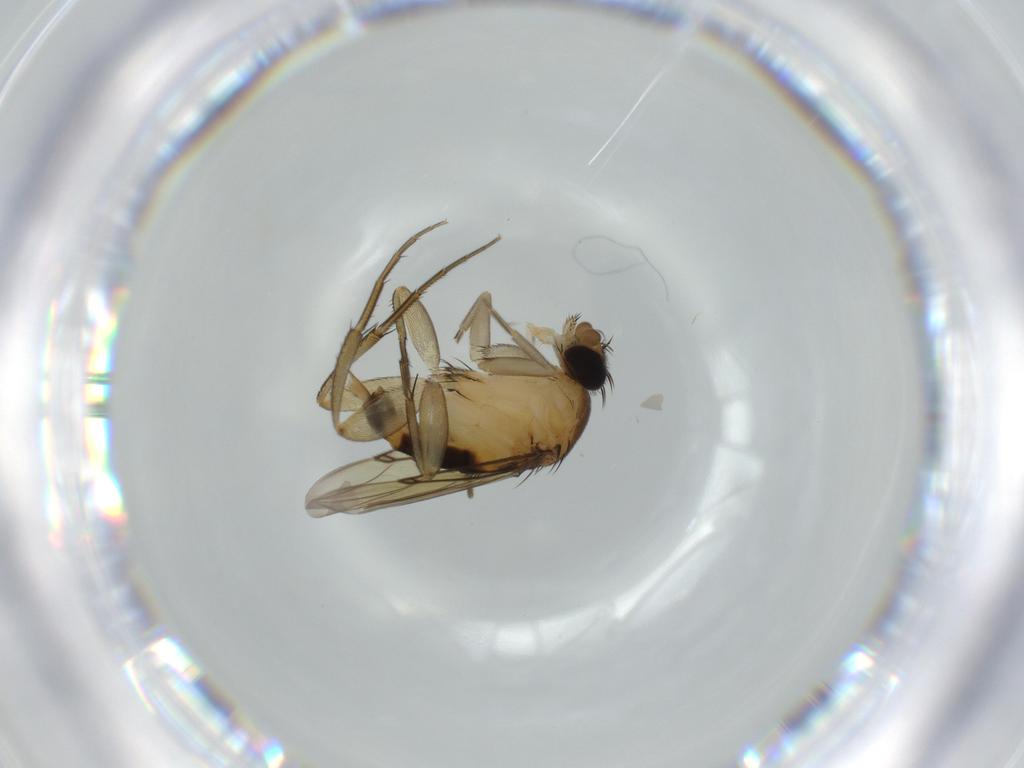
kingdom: Animalia
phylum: Arthropoda
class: Insecta
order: Diptera
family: Phoridae
